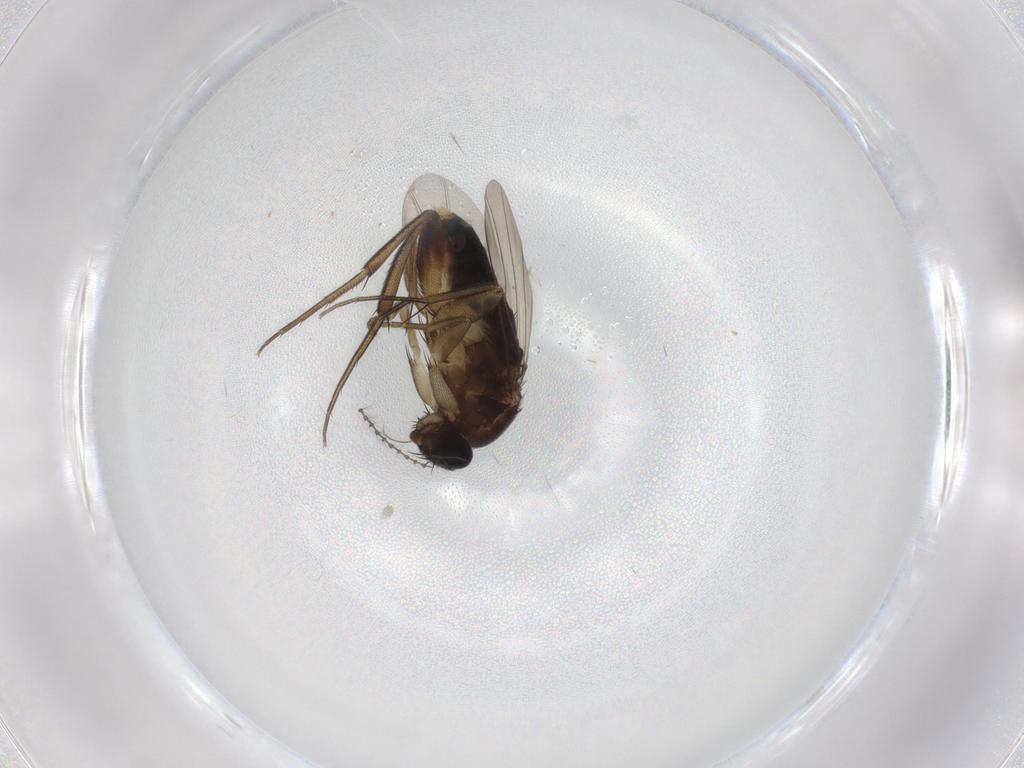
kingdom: Animalia
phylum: Arthropoda
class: Insecta
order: Diptera
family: Phoridae
